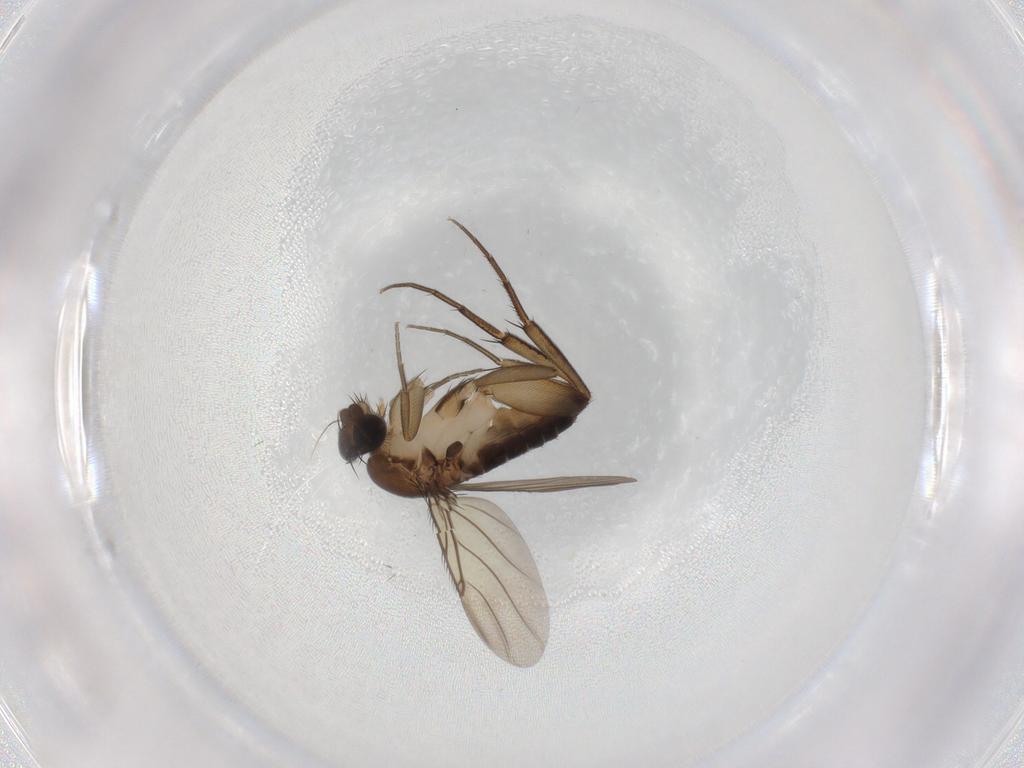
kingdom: Animalia
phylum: Arthropoda
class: Insecta
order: Diptera
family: Phoridae
